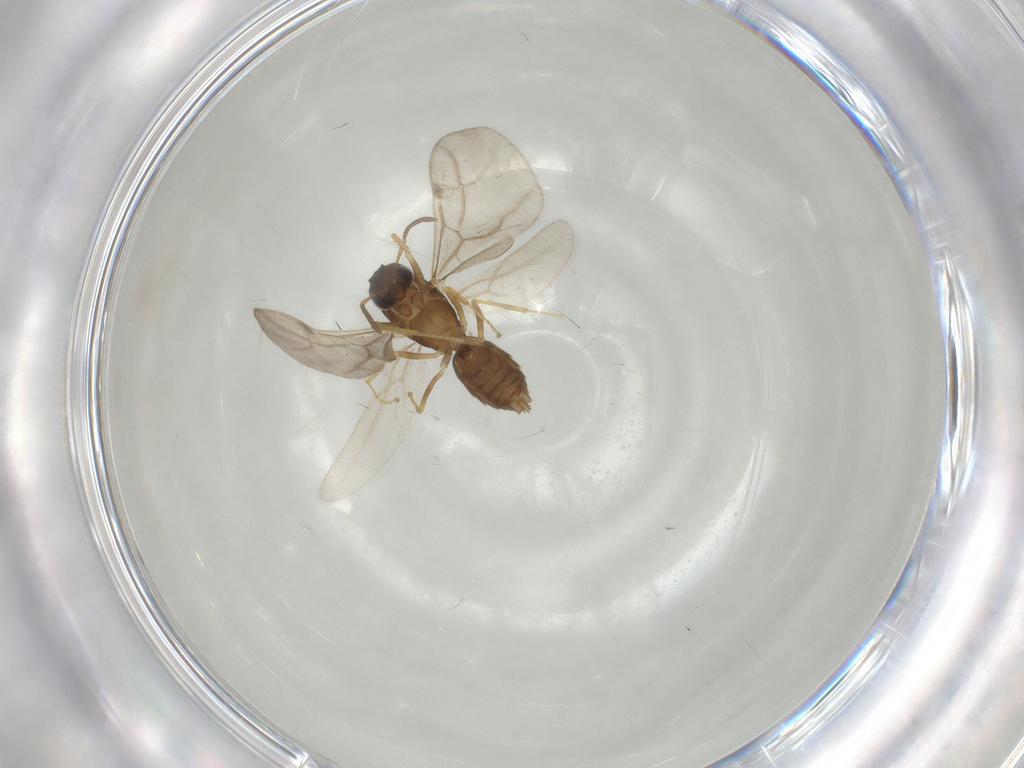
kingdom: Animalia
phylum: Arthropoda
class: Insecta
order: Hymenoptera
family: Formicidae
